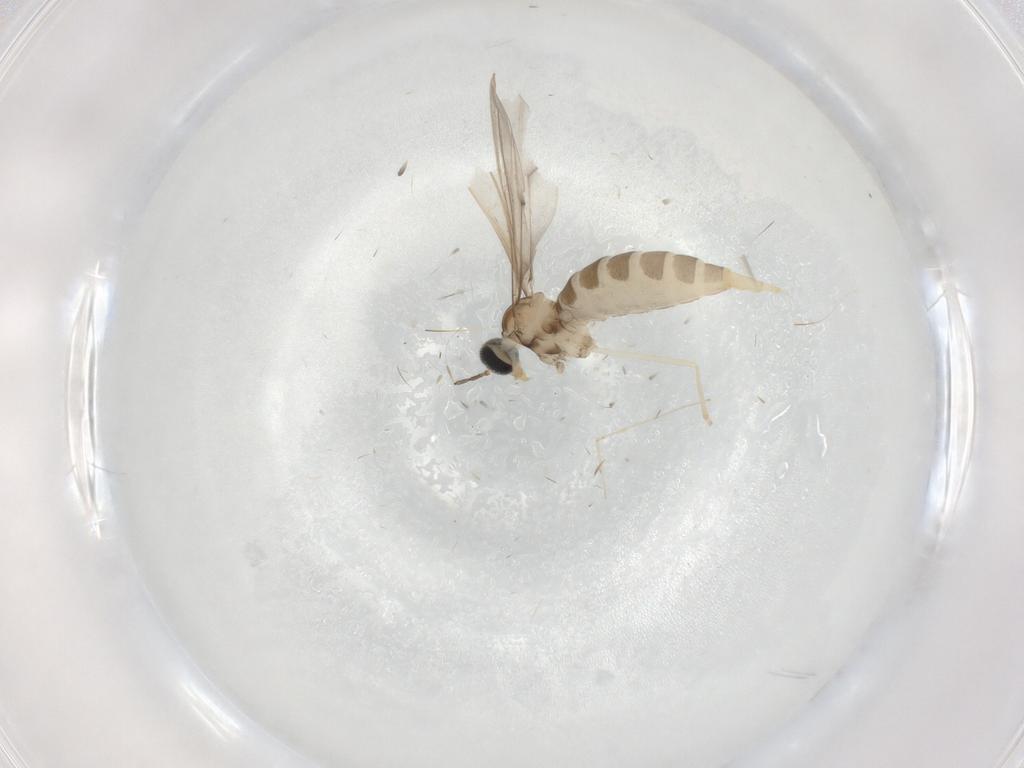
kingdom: Animalia
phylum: Arthropoda
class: Insecta
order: Diptera
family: Cecidomyiidae
